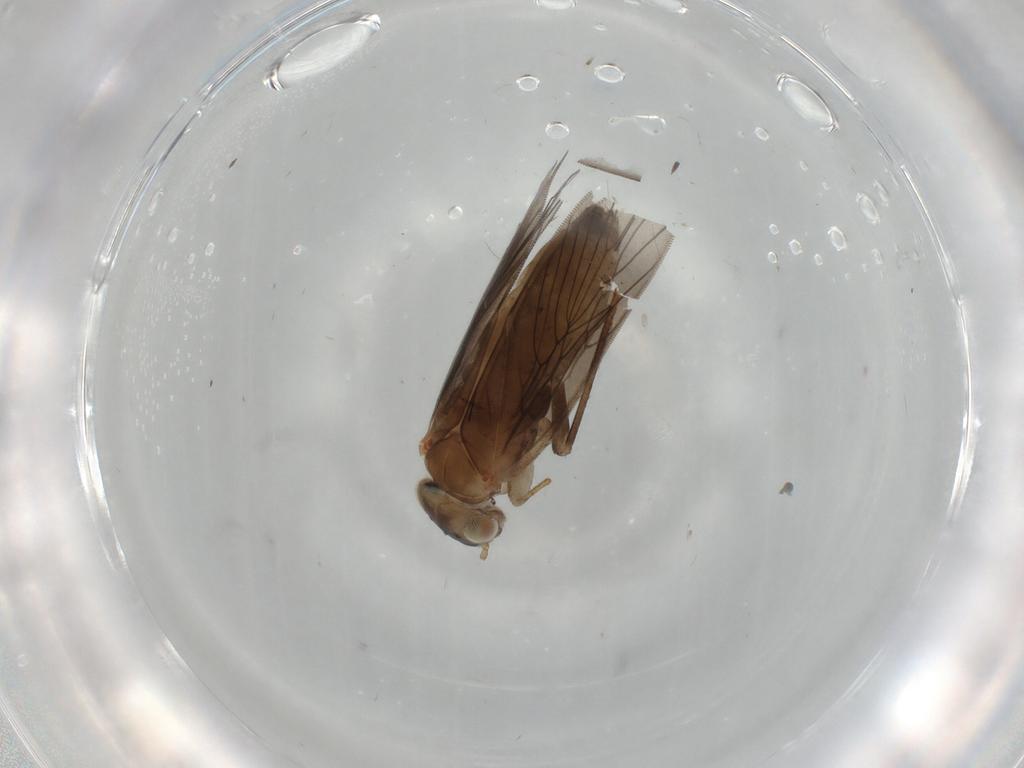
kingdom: Animalia
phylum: Arthropoda
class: Insecta
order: Psocodea
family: Lepidopsocidae
